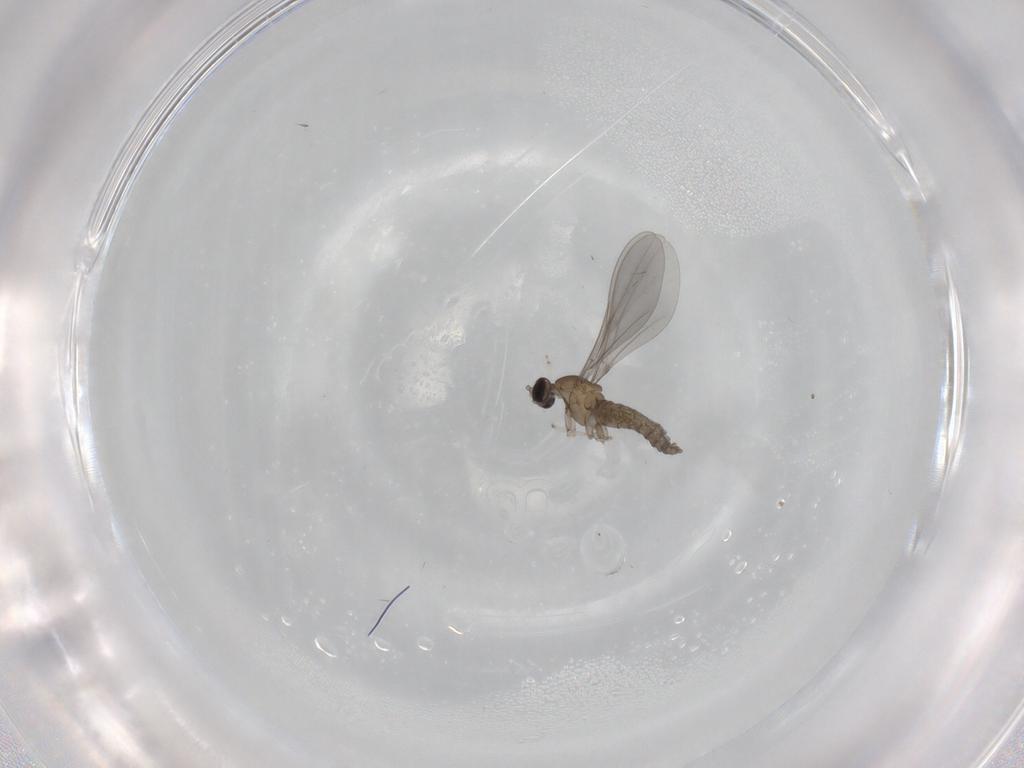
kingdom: Animalia
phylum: Arthropoda
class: Insecta
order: Diptera
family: Cecidomyiidae
